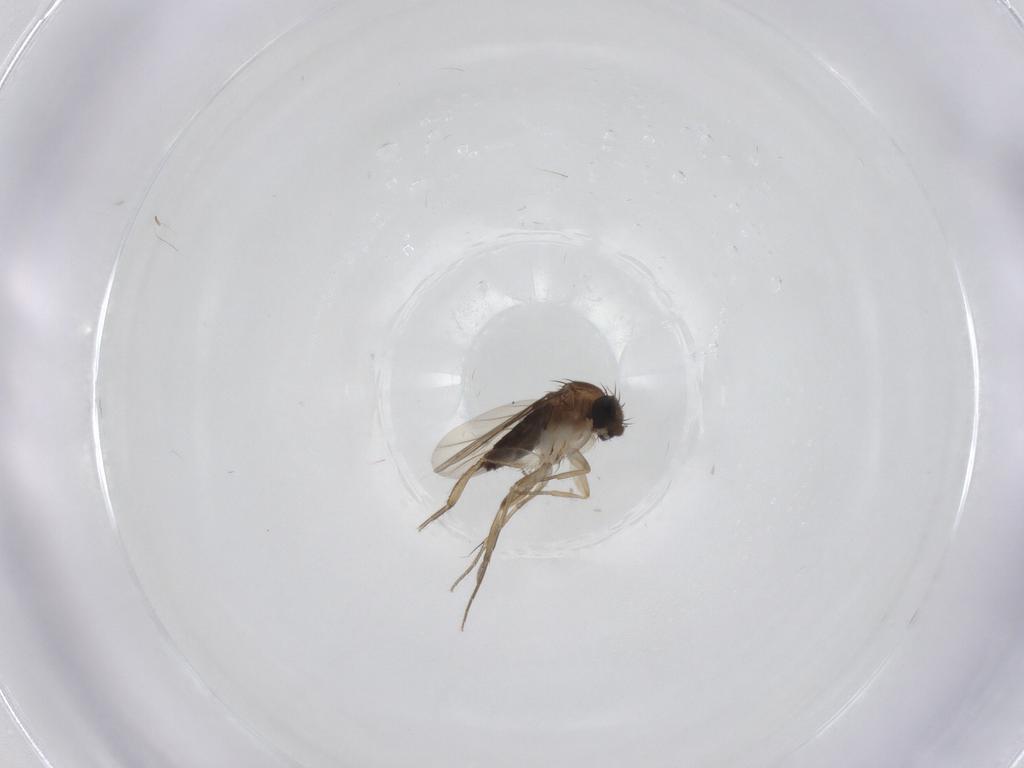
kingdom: Animalia
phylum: Arthropoda
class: Insecta
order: Diptera
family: Phoridae
